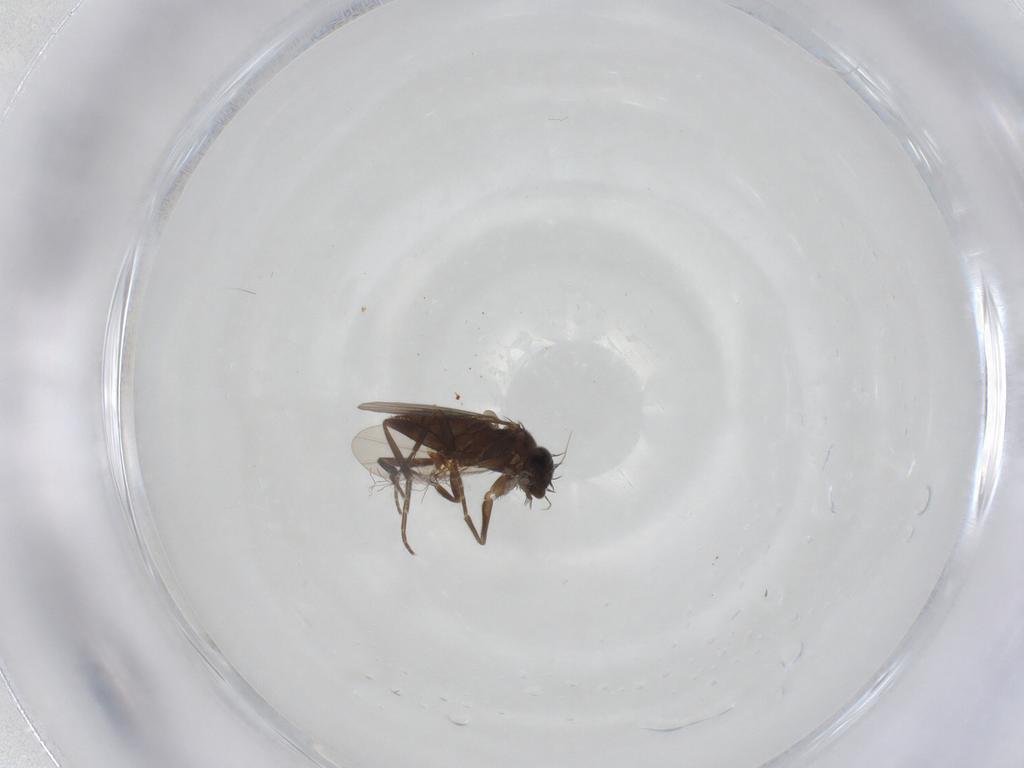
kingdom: Animalia
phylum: Arthropoda
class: Insecta
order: Diptera
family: Phoridae
